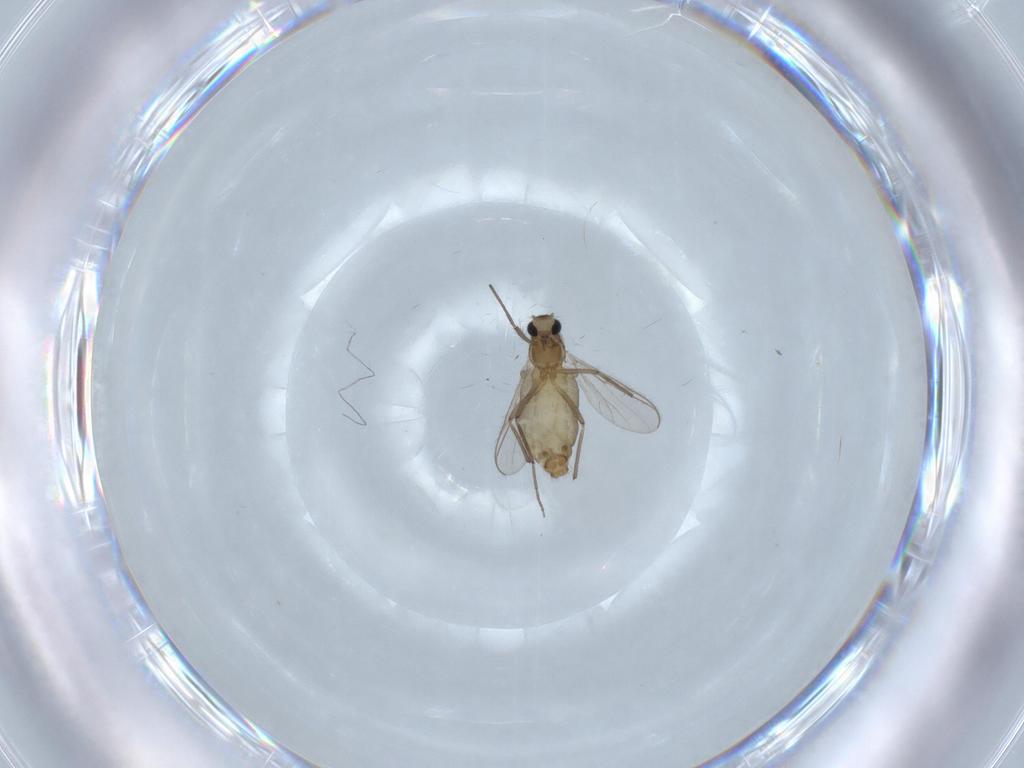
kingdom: Animalia
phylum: Arthropoda
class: Insecta
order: Diptera
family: Chironomidae
